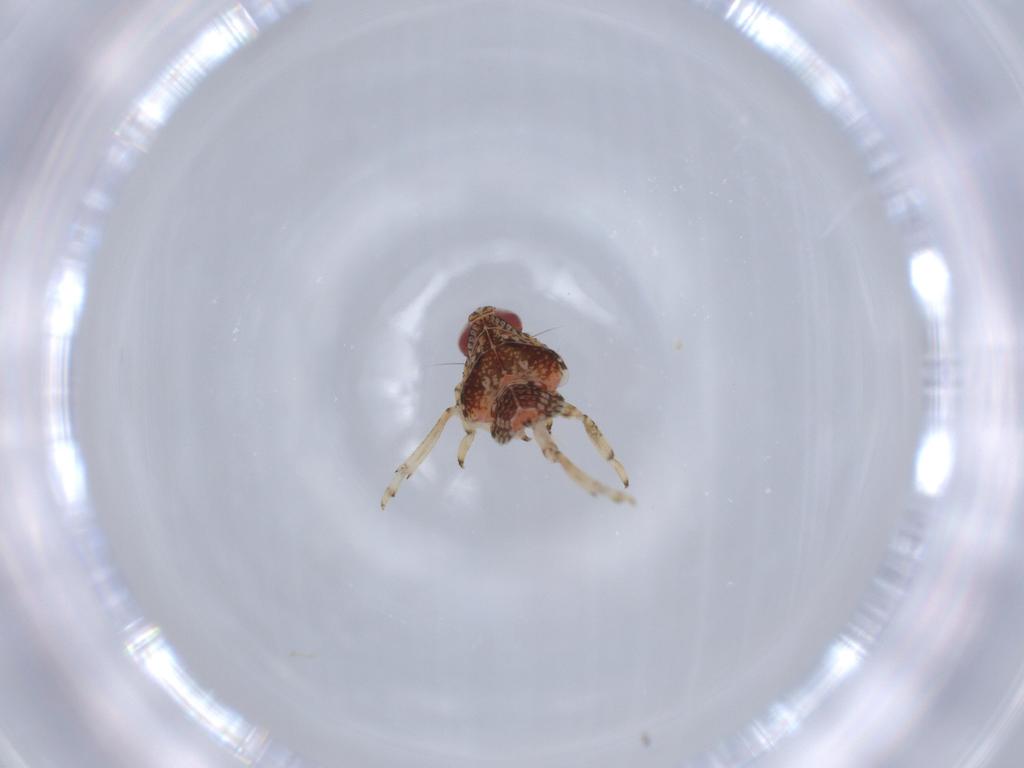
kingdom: Animalia
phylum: Arthropoda
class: Insecta
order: Hemiptera
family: Issidae
